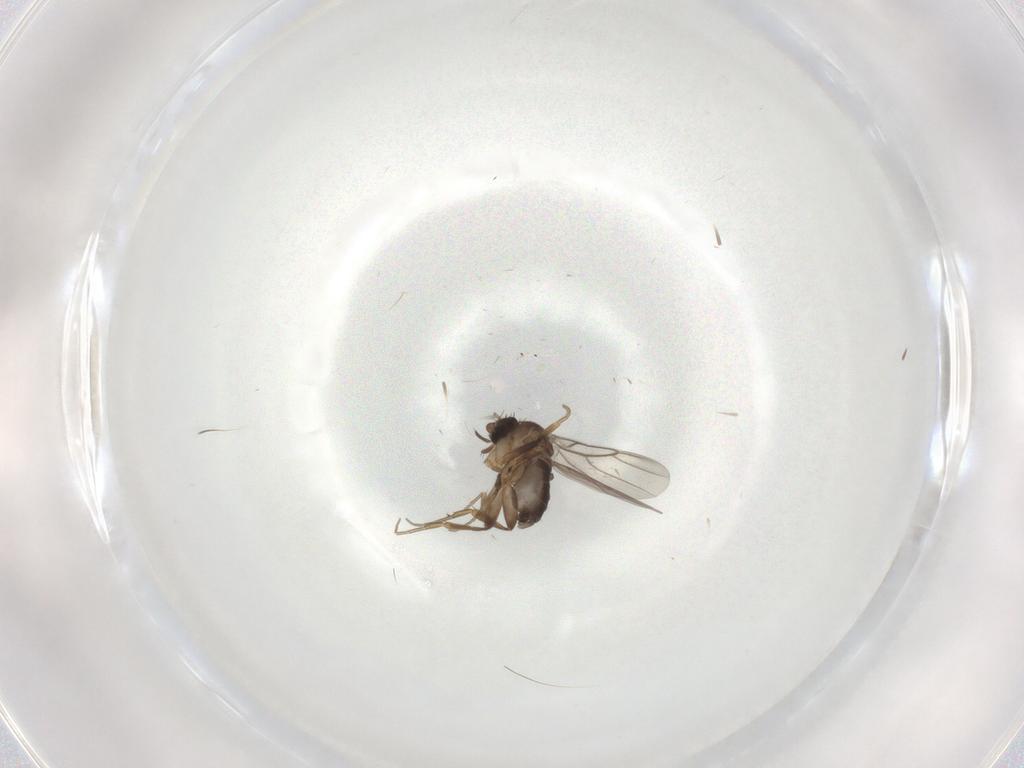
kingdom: Animalia
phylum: Arthropoda
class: Insecta
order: Diptera
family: Phoridae
